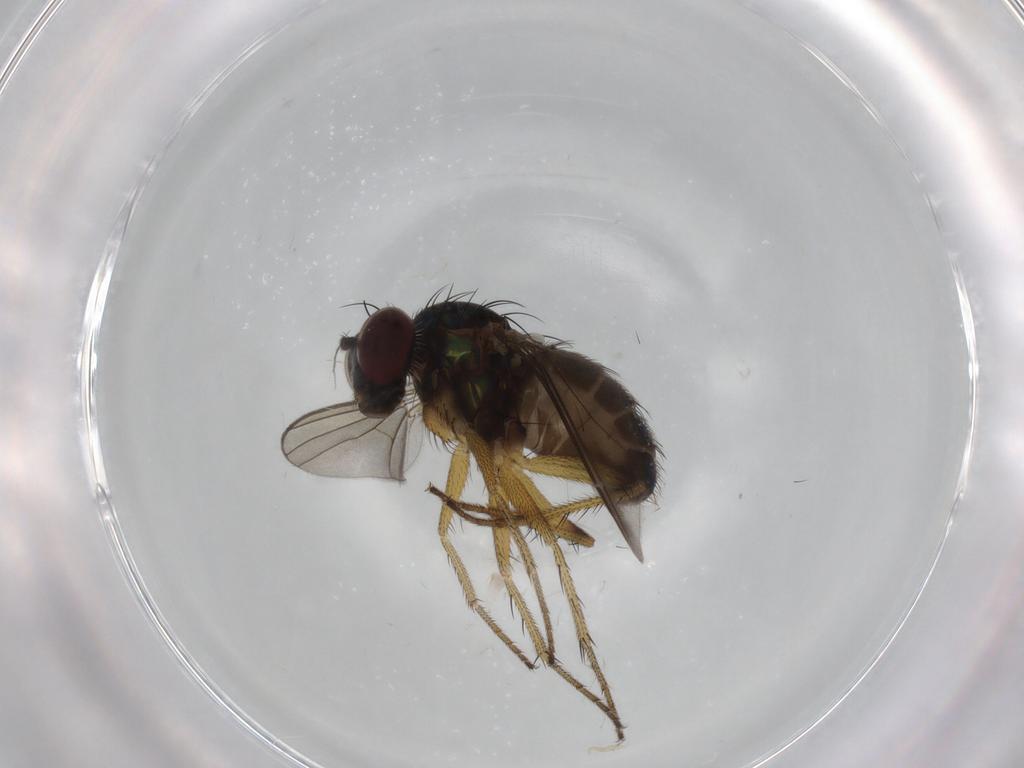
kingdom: Animalia
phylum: Arthropoda
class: Insecta
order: Diptera
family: Dolichopodidae
